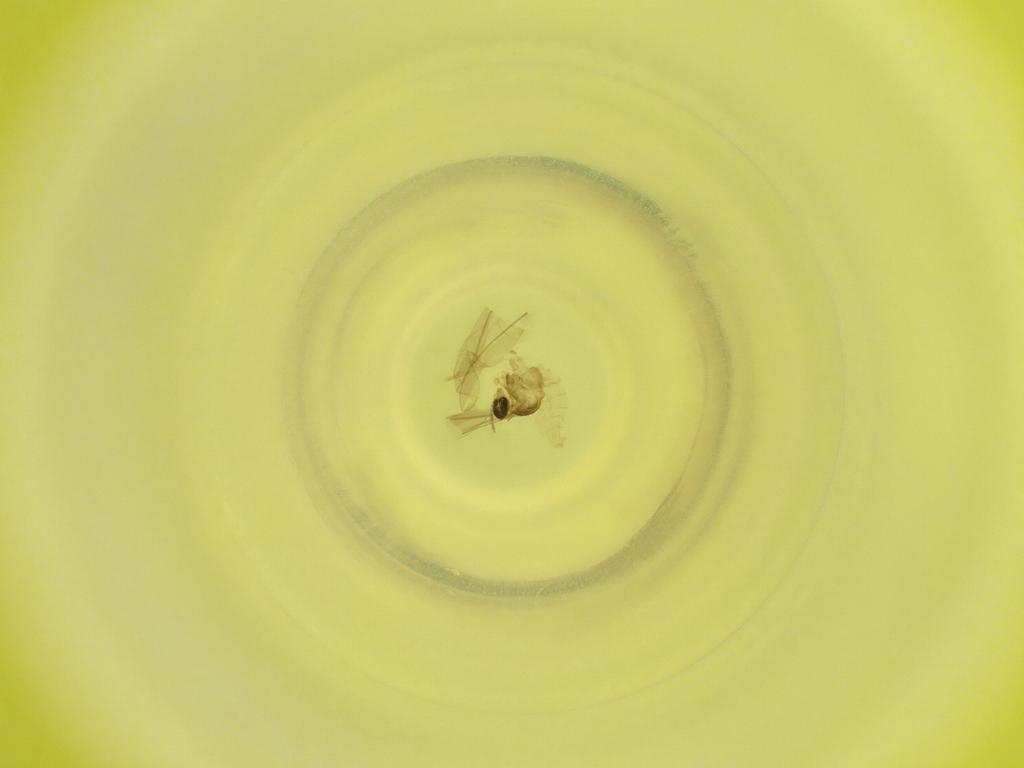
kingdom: Animalia
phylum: Arthropoda
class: Insecta
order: Diptera
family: Cecidomyiidae
